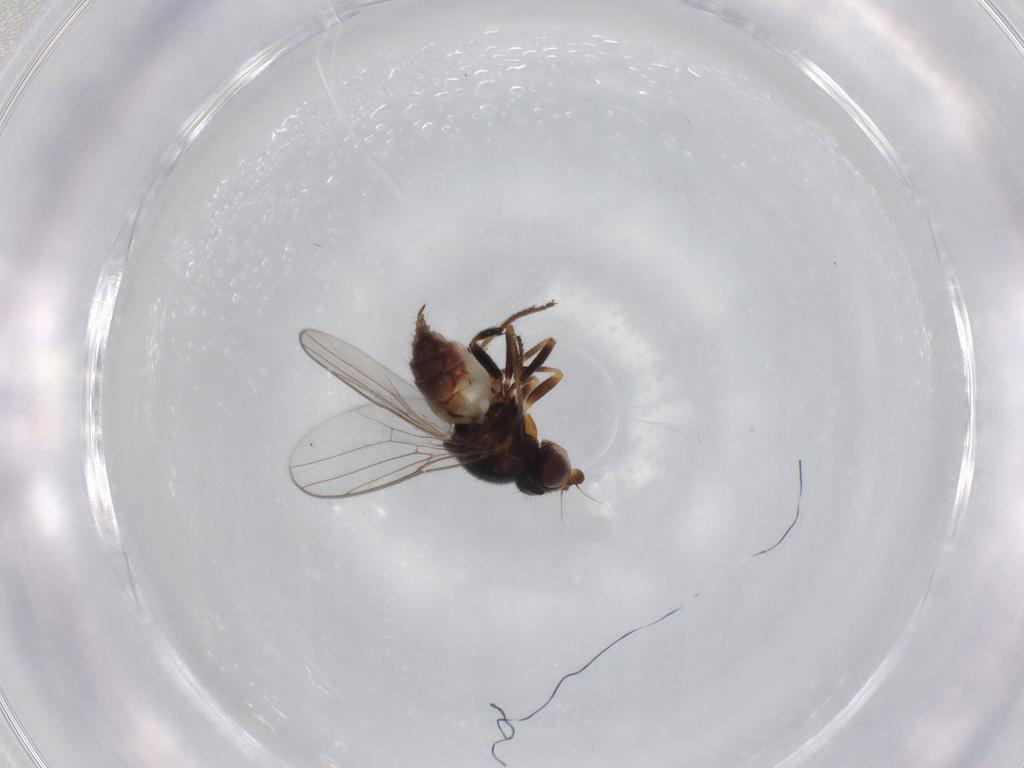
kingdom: Animalia
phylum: Arthropoda
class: Insecta
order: Diptera
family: Chloropidae
